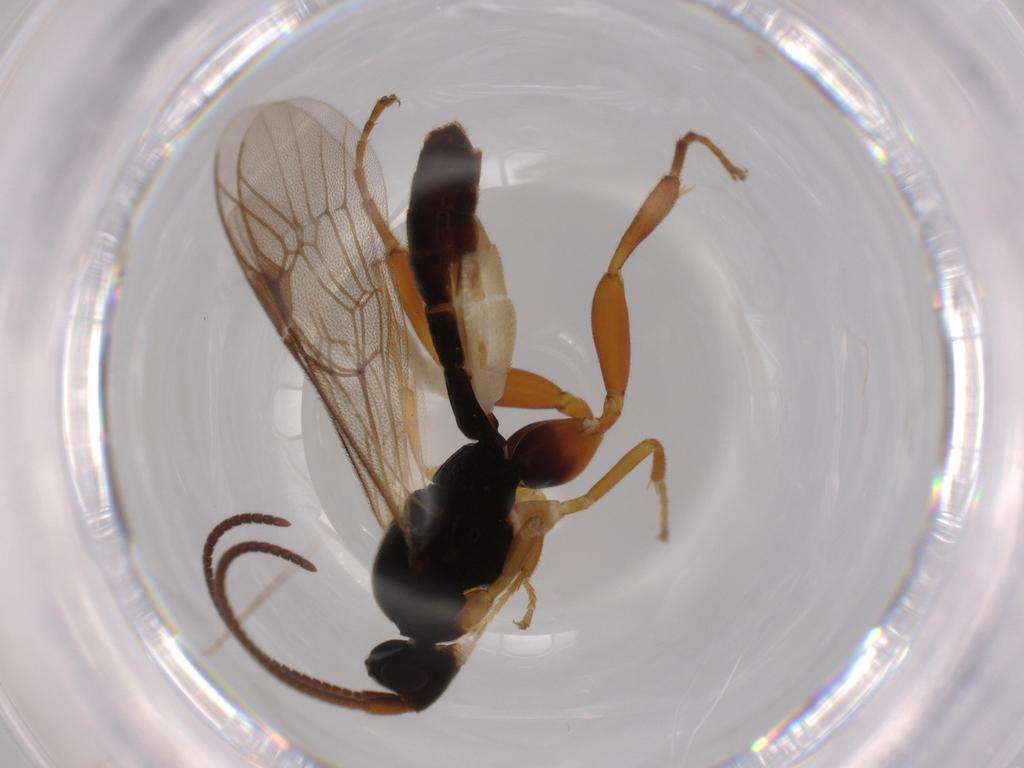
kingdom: Animalia
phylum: Arthropoda
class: Insecta
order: Hymenoptera
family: Ichneumonidae
